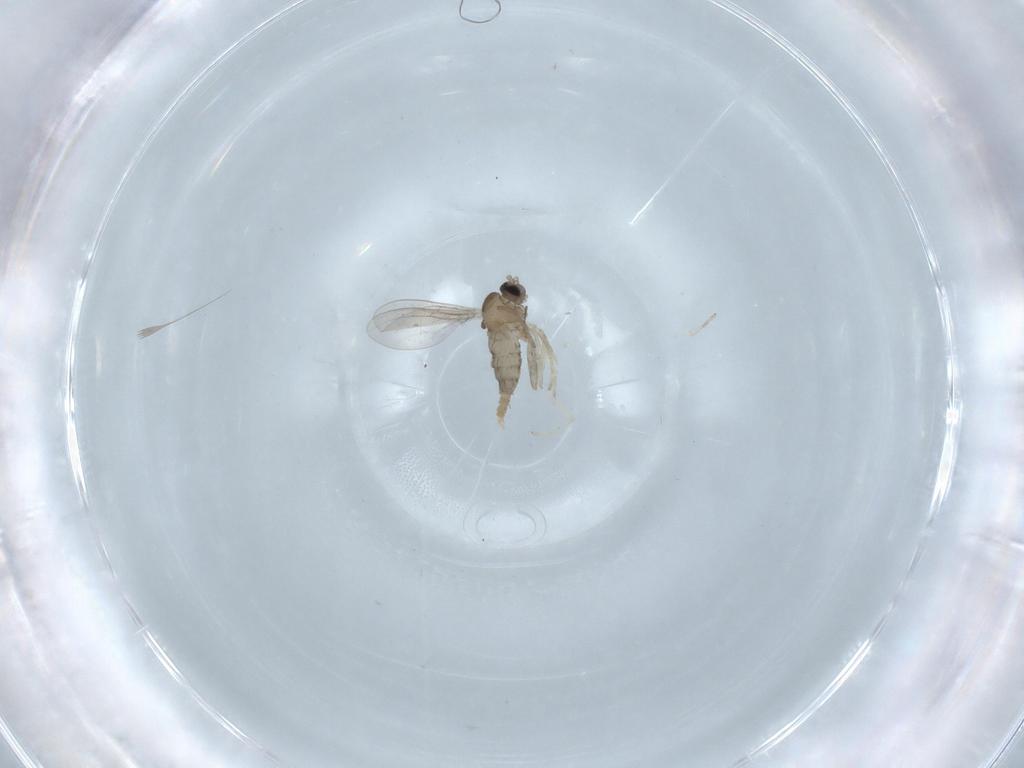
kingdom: Animalia
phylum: Arthropoda
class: Insecta
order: Diptera
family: Cecidomyiidae
